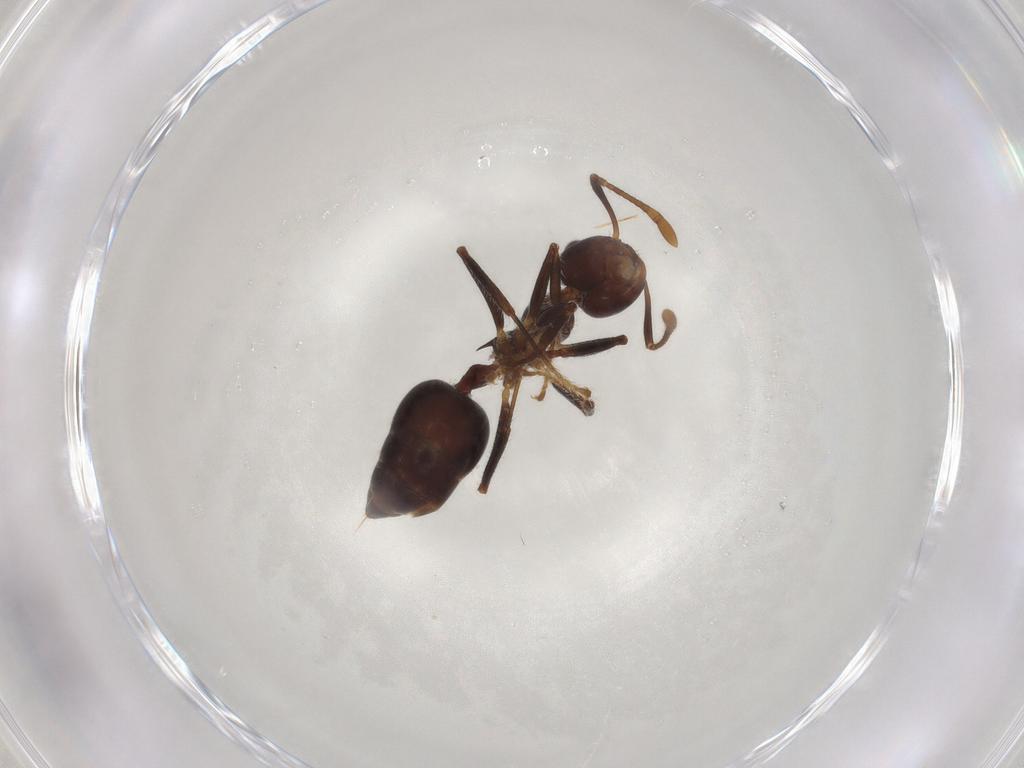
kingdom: Animalia
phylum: Arthropoda
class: Insecta
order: Hymenoptera
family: Formicidae
